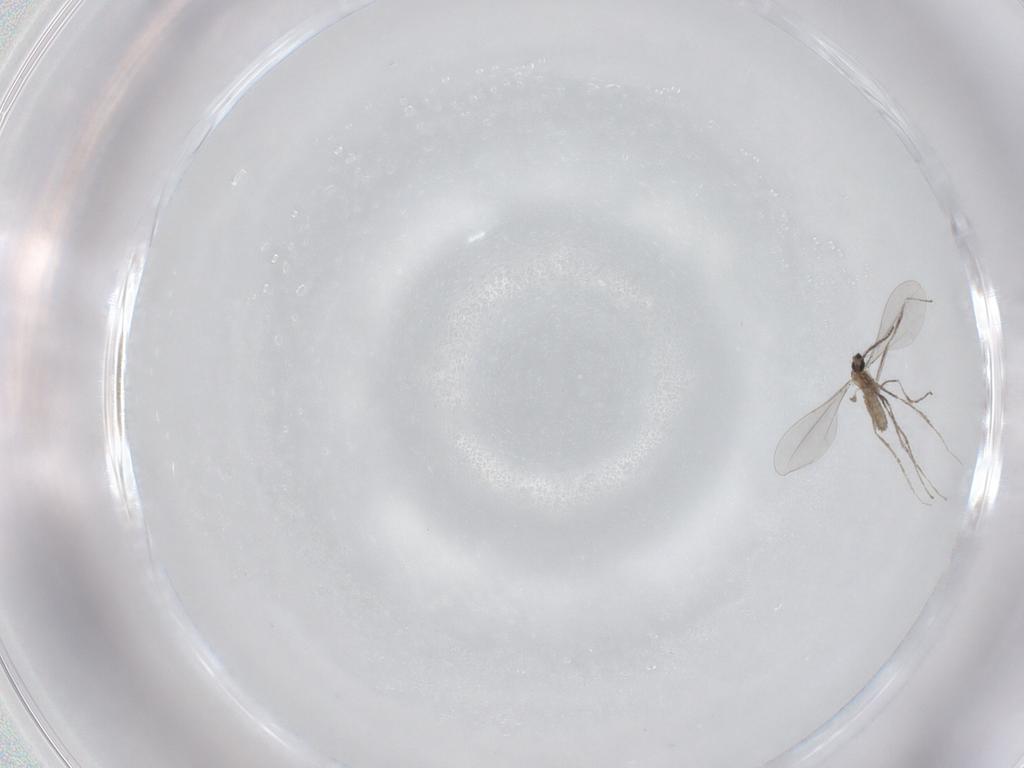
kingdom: Animalia
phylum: Arthropoda
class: Insecta
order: Diptera
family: Cecidomyiidae
